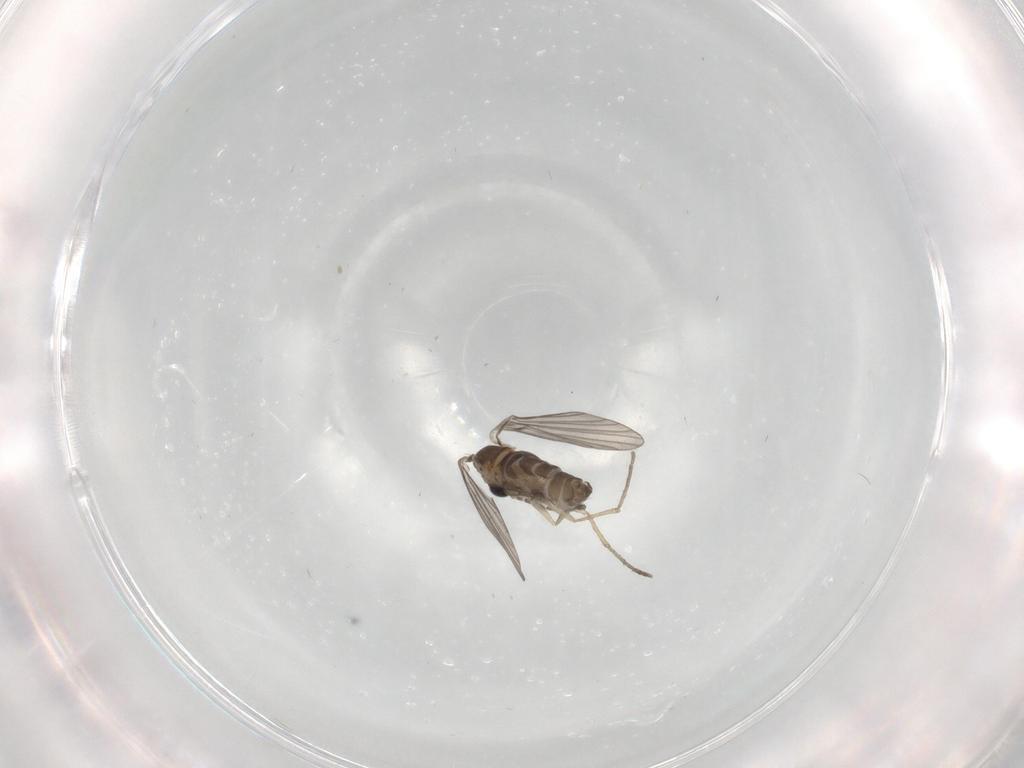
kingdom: Animalia
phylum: Arthropoda
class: Insecta
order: Diptera
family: Psychodidae
